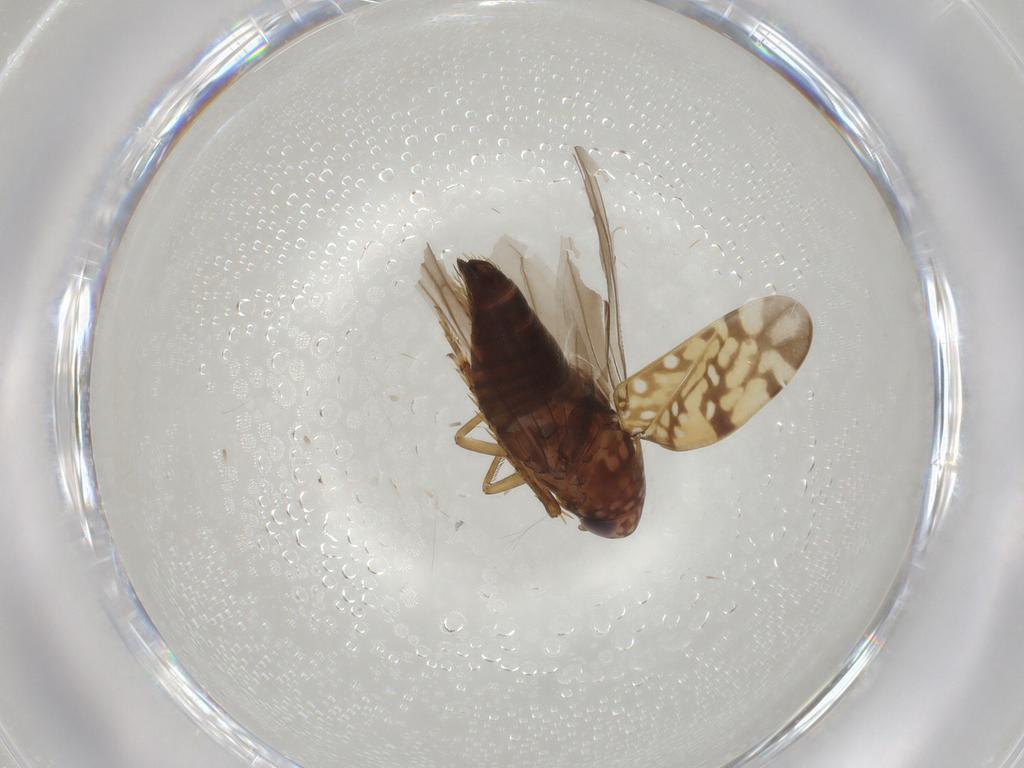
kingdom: Animalia
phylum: Arthropoda
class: Insecta
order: Hemiptera
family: Cicadellidae
